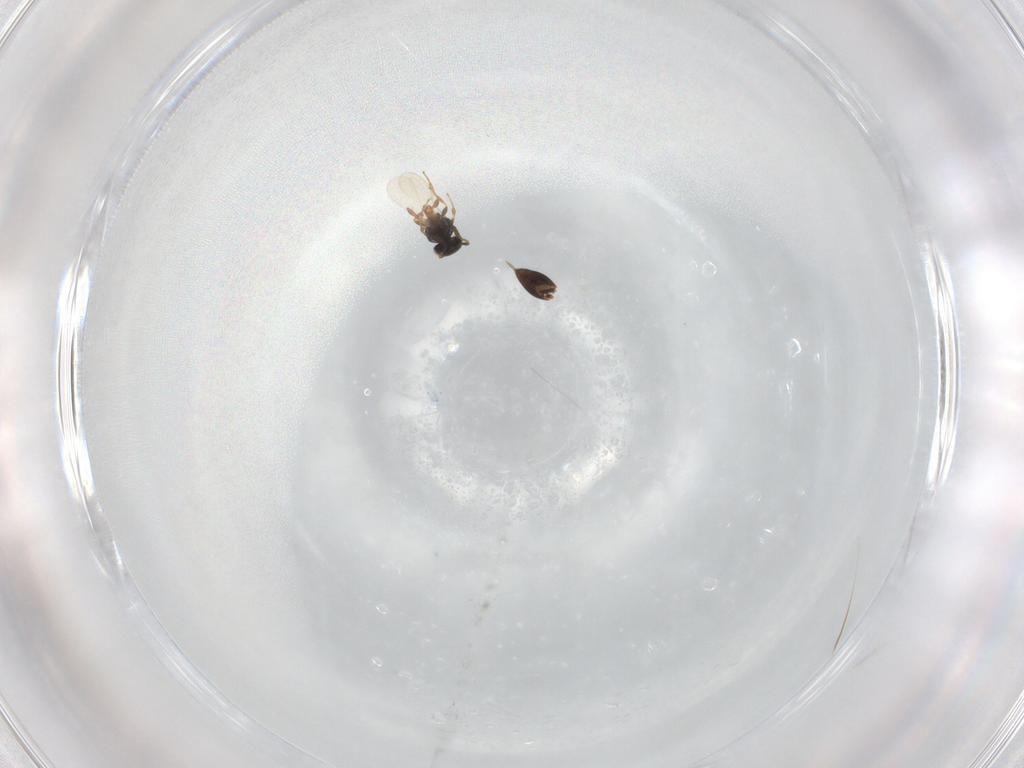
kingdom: Animalia
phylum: Arthropoda
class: Insecta
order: Hymenoptera
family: Platygastridae
